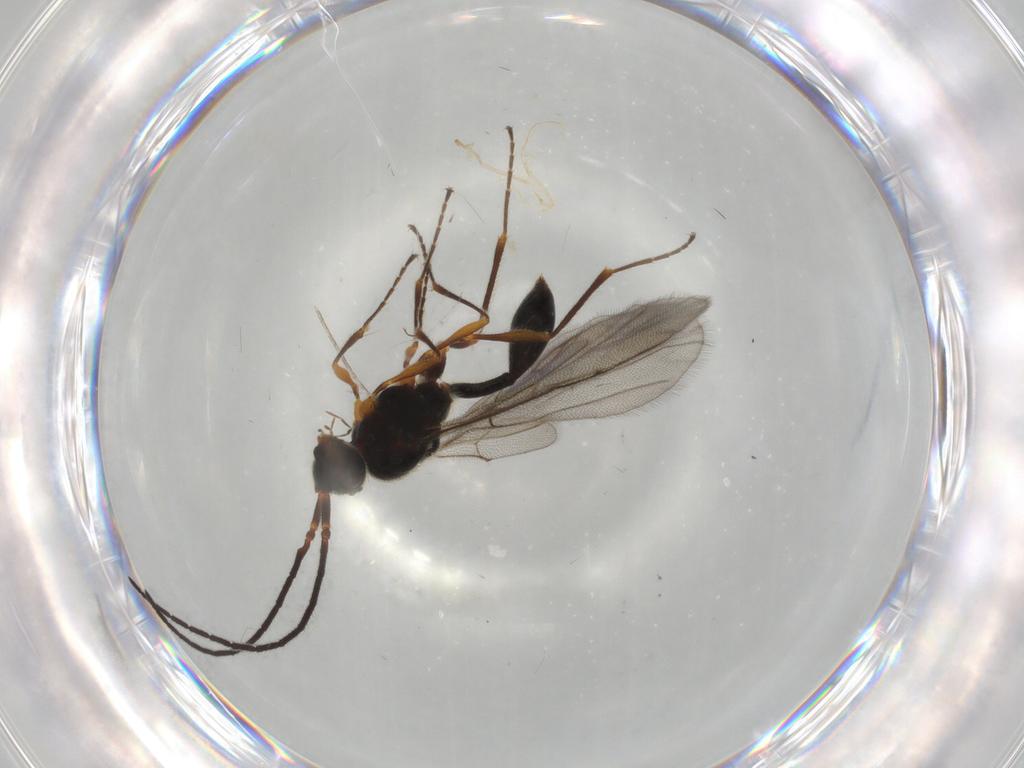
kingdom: Animalia
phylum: Arthropoda
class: Insecta
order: Hymenoptera
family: Diapriidae
